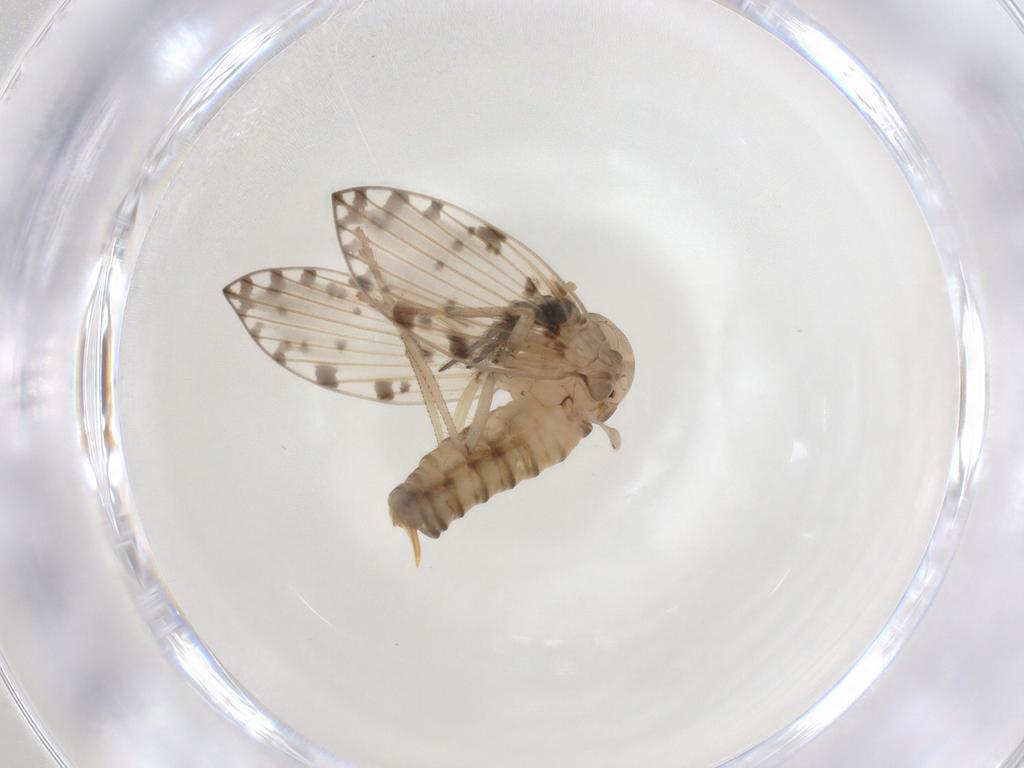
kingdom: Animalia
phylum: Arthropoda
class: Insecta
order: Diptera
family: Psychodidae
